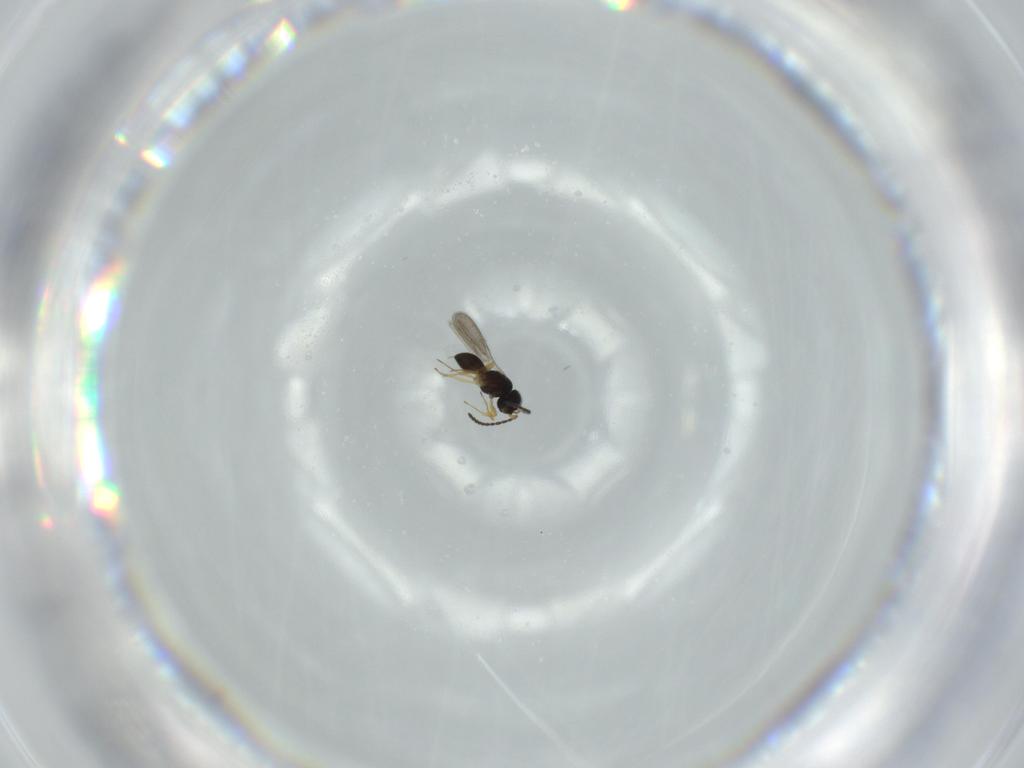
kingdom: Animalia
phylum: Arthropoda
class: Insecta
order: Hymenoptera
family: Scelionidae
